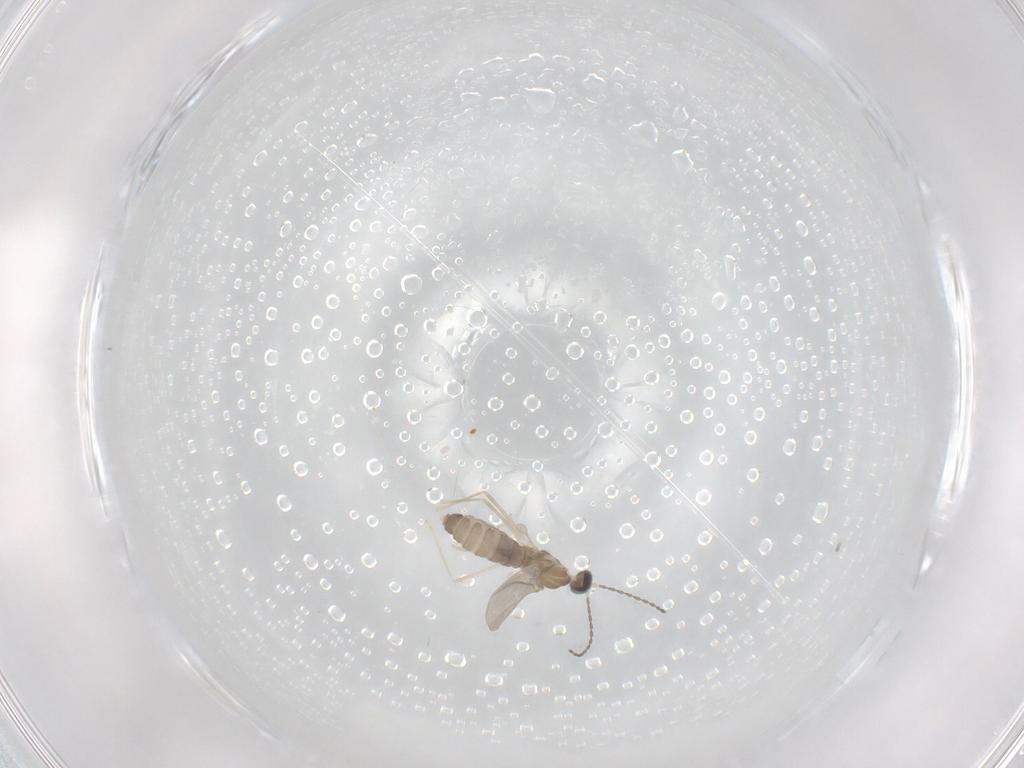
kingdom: Animalia
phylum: Arthropoda
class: Insecta
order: Diptera
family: Cecidomyiidae
